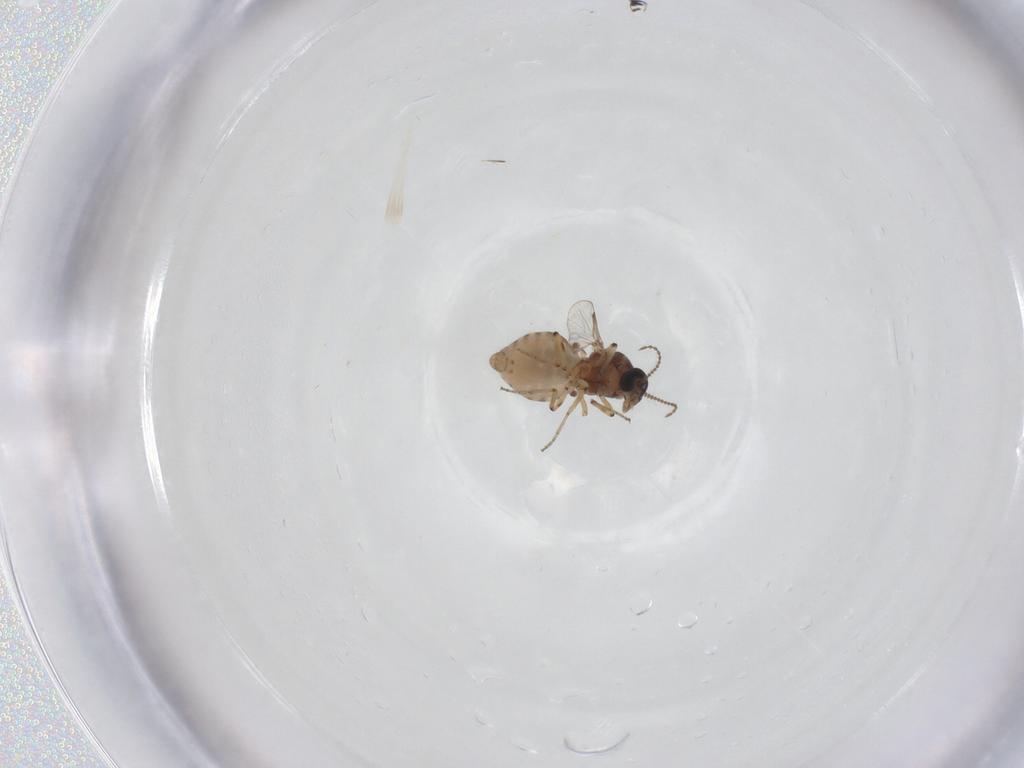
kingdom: Animalia
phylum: Arthropoda
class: Insecta
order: Diptera
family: Ceratopogonidae
